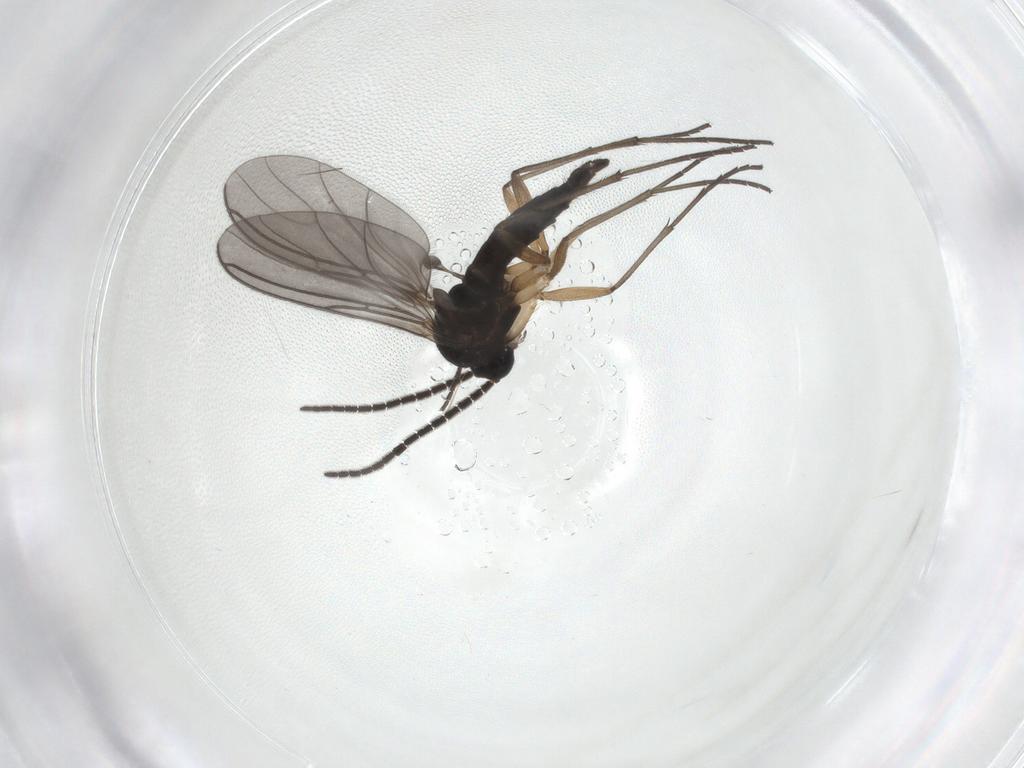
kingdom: Animalia
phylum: Arthropoda
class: Insecta
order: Diptera
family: Sciaridae
